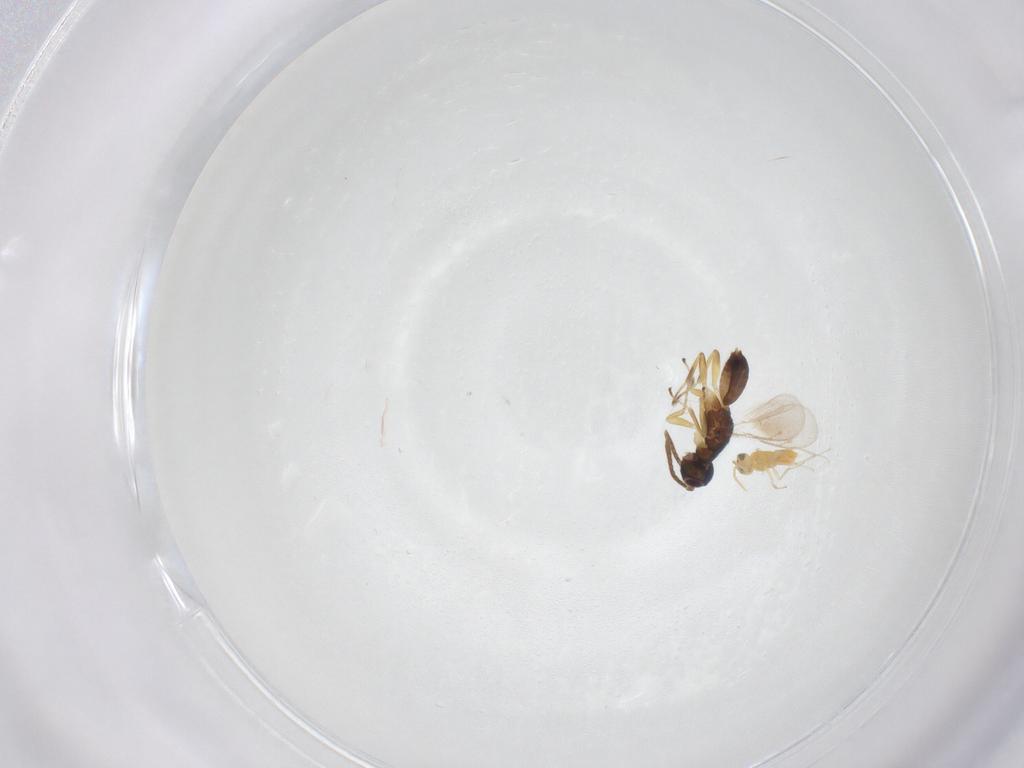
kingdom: Animalia
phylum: Arthropoda
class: Insecta
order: Hymenoptera
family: Eupelmidae
